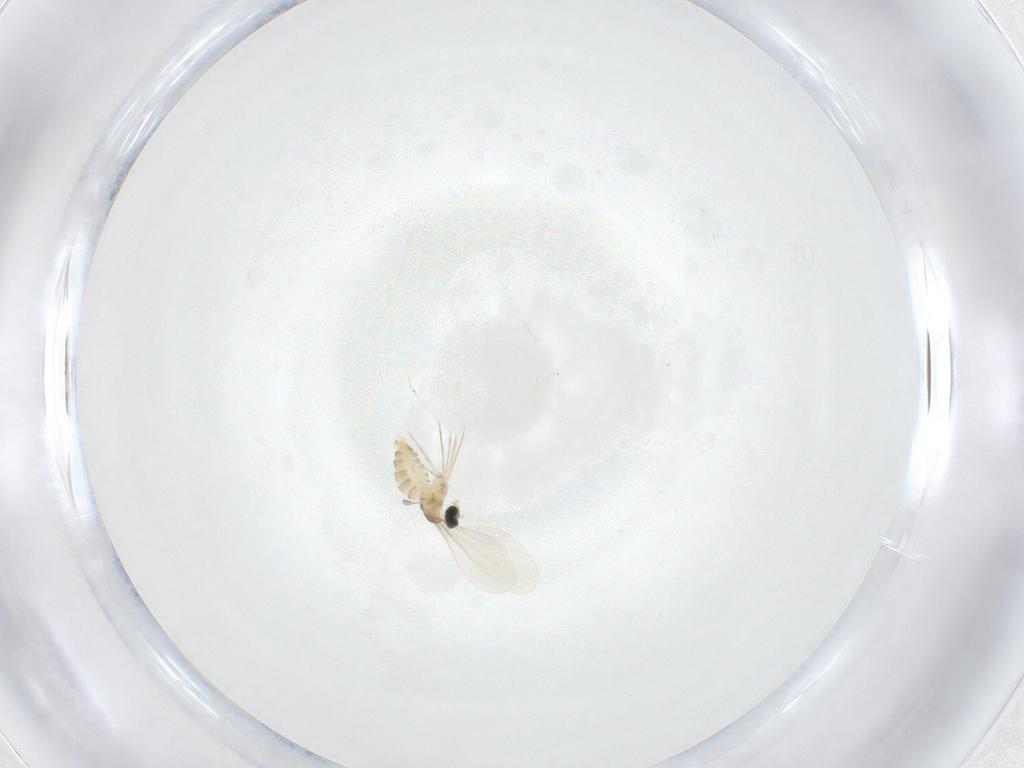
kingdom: Animalia
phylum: Arthropoda
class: Insecta
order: Diptera
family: Cecidomyiidae
